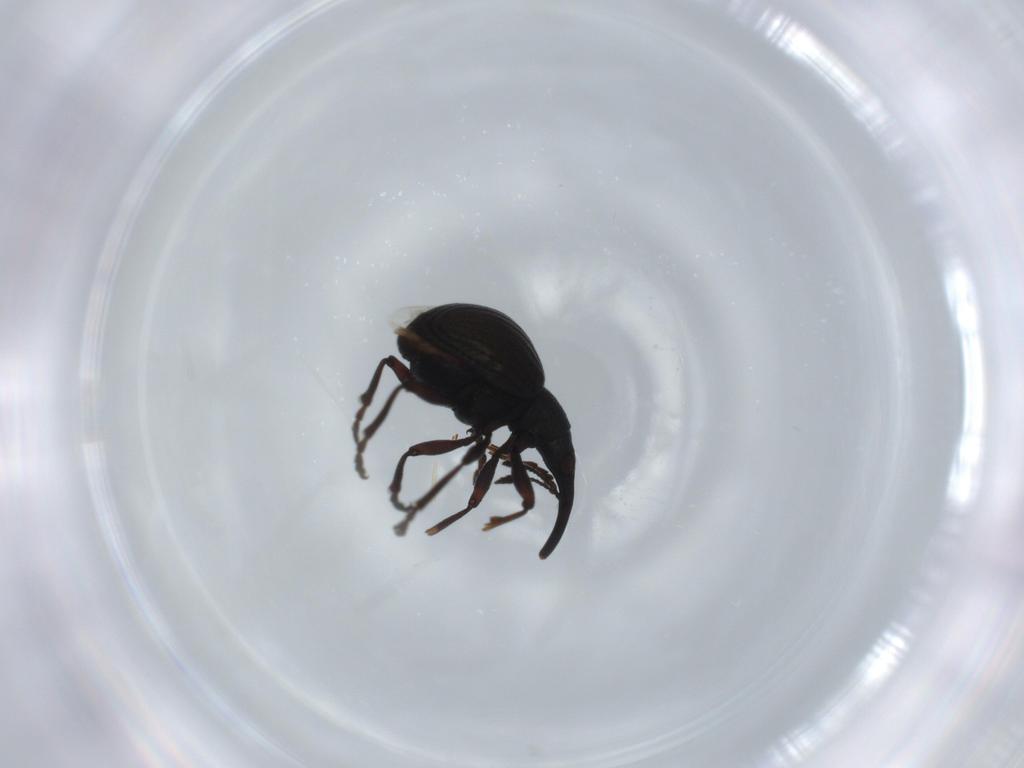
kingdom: Animalia
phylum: Arthropoda
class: Insecta
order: Coleoptera
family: Brentidae
